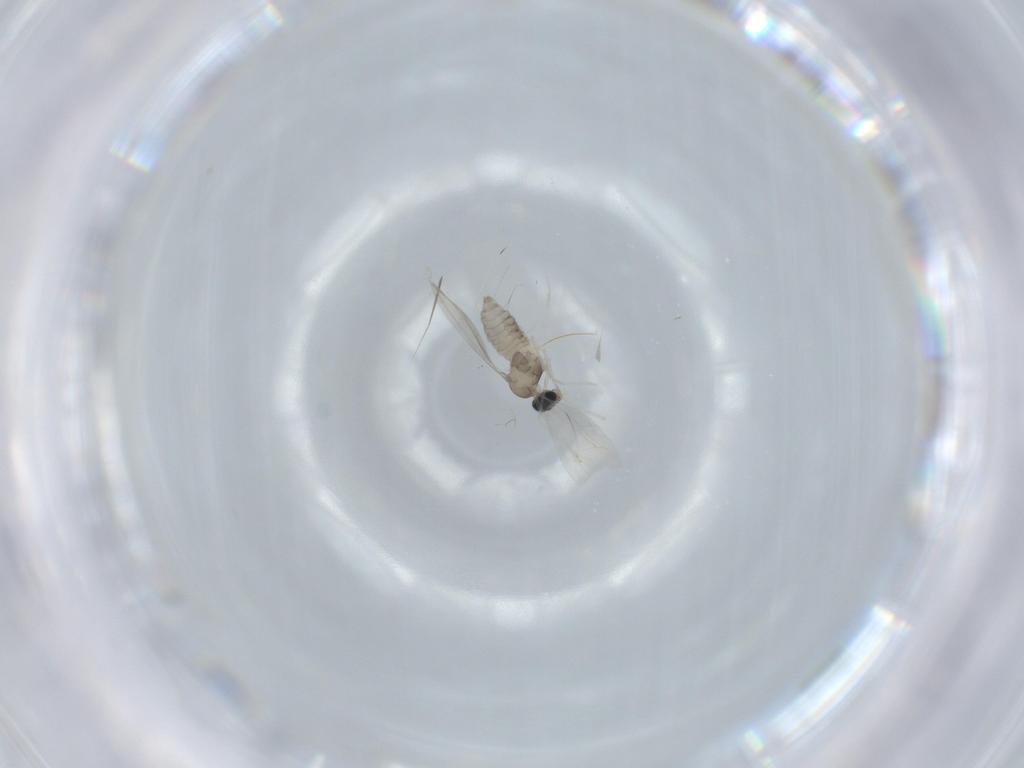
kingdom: Animalia
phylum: Arthropoda
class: Insecta
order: Diptera
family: Cecidomyiidae
